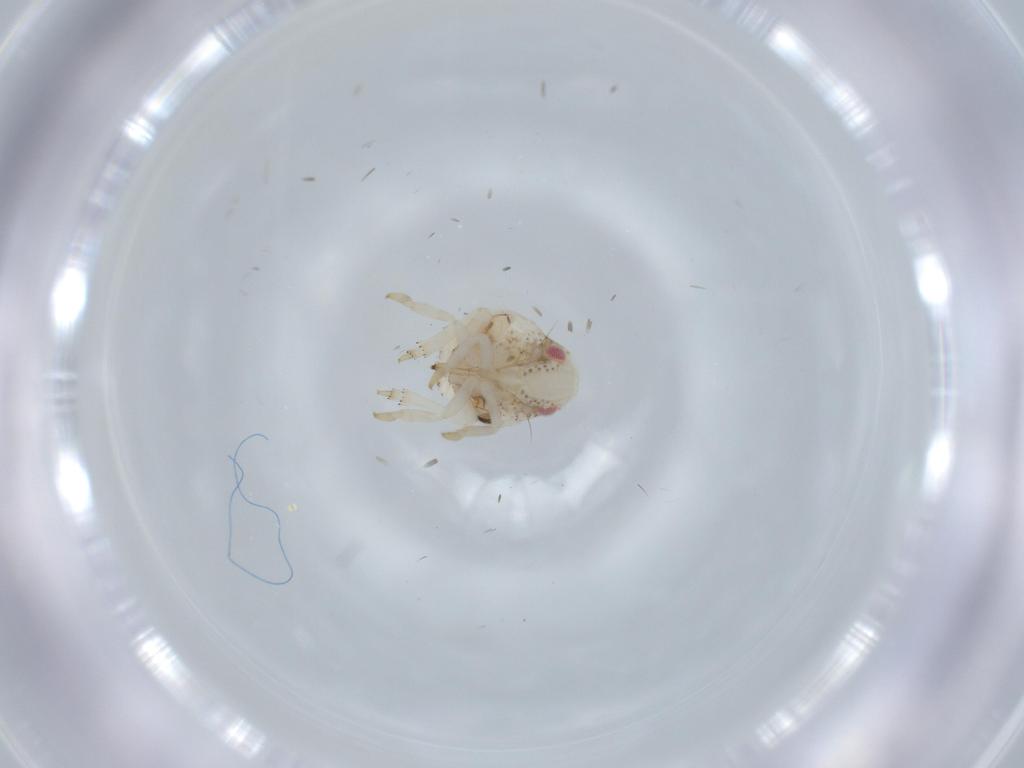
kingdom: Animalia
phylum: Arthropoda
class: Insecta
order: Hemiptera
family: Acanaloniidae
